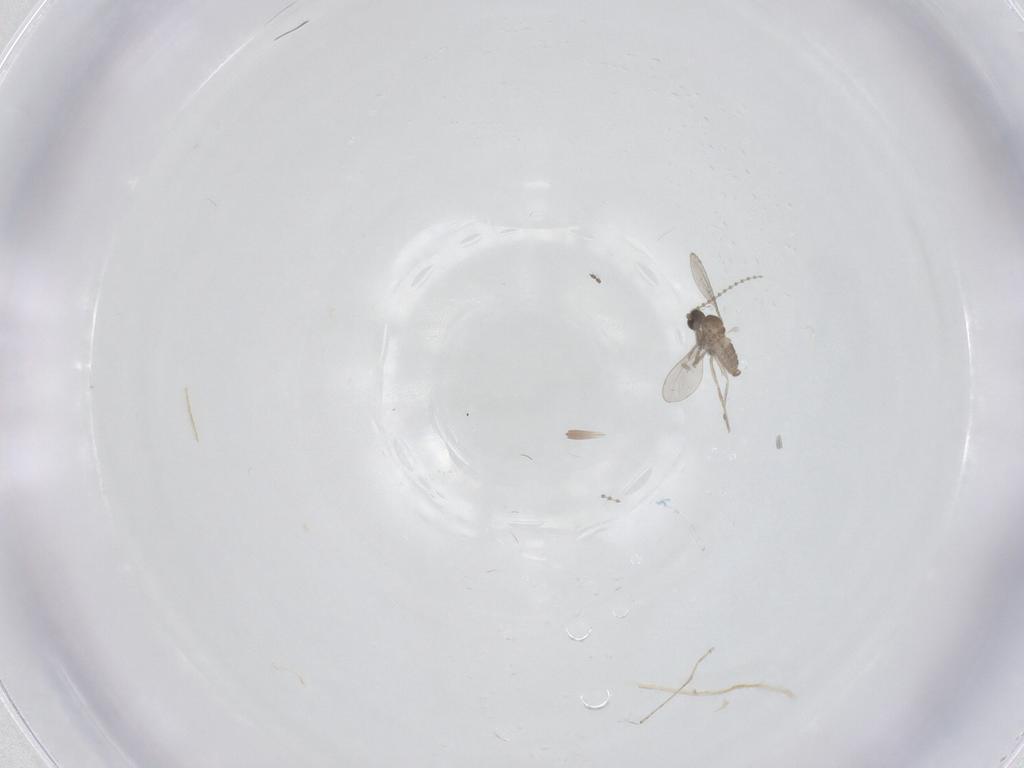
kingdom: Animalia
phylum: Arthropoda
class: Insecta
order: Diptera
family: Cecidomyiidae
